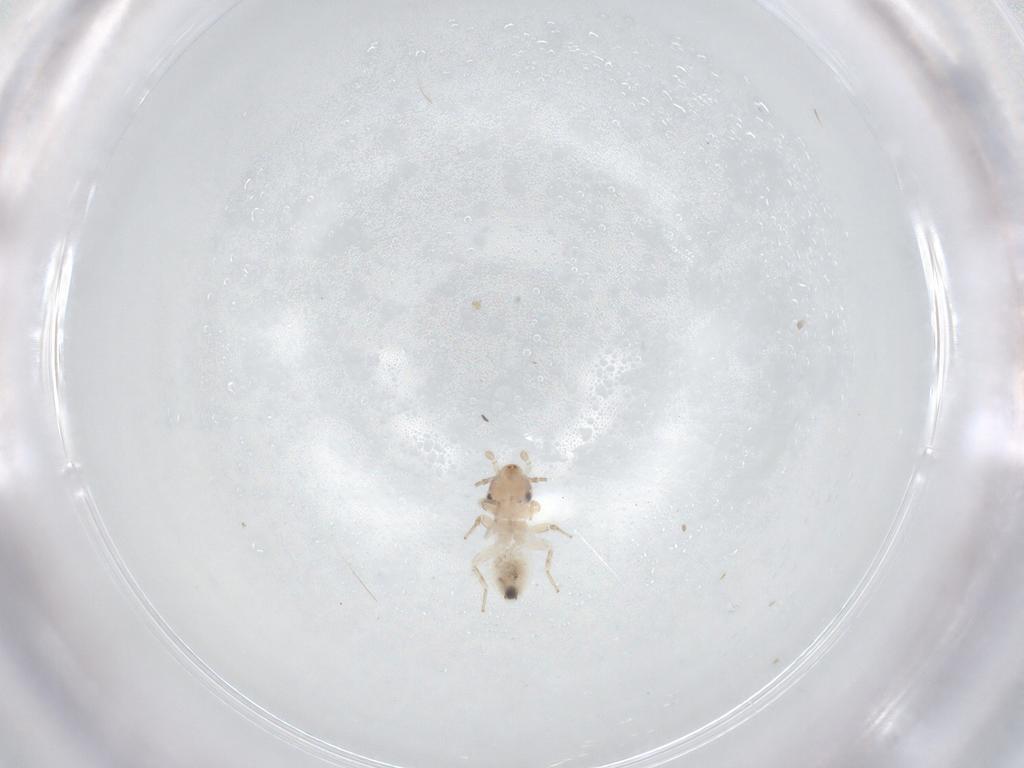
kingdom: Animalia
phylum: Arthropoda
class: Insecta
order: Psocodea
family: Lepidopsocidae
